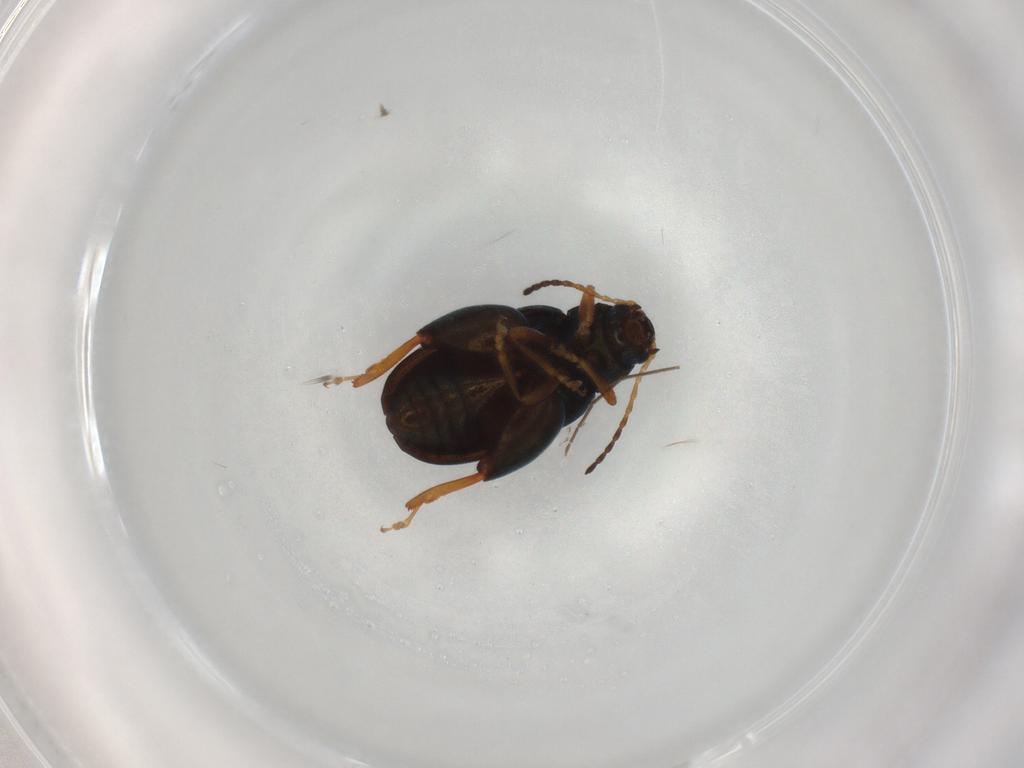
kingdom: Animalia
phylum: Arthropoda
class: Insecta
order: Coleoptera
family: Chrysomelidae
